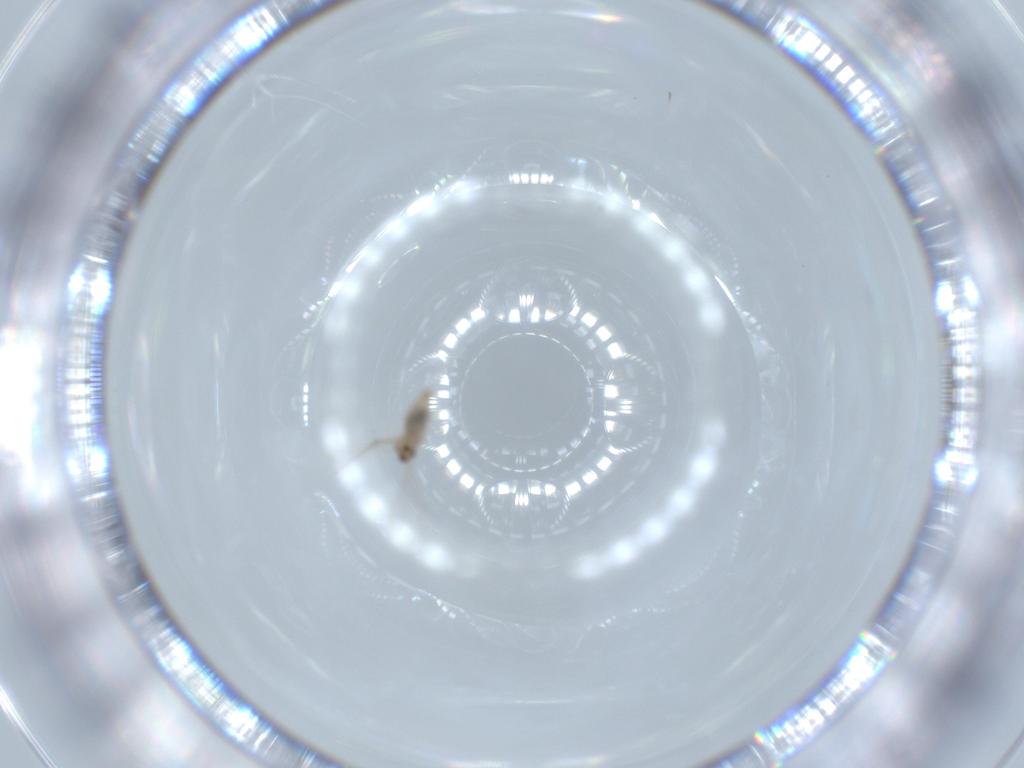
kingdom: Animalia
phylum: Arthropoda
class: Insecta
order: Diptera
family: Cecidomyiidae
